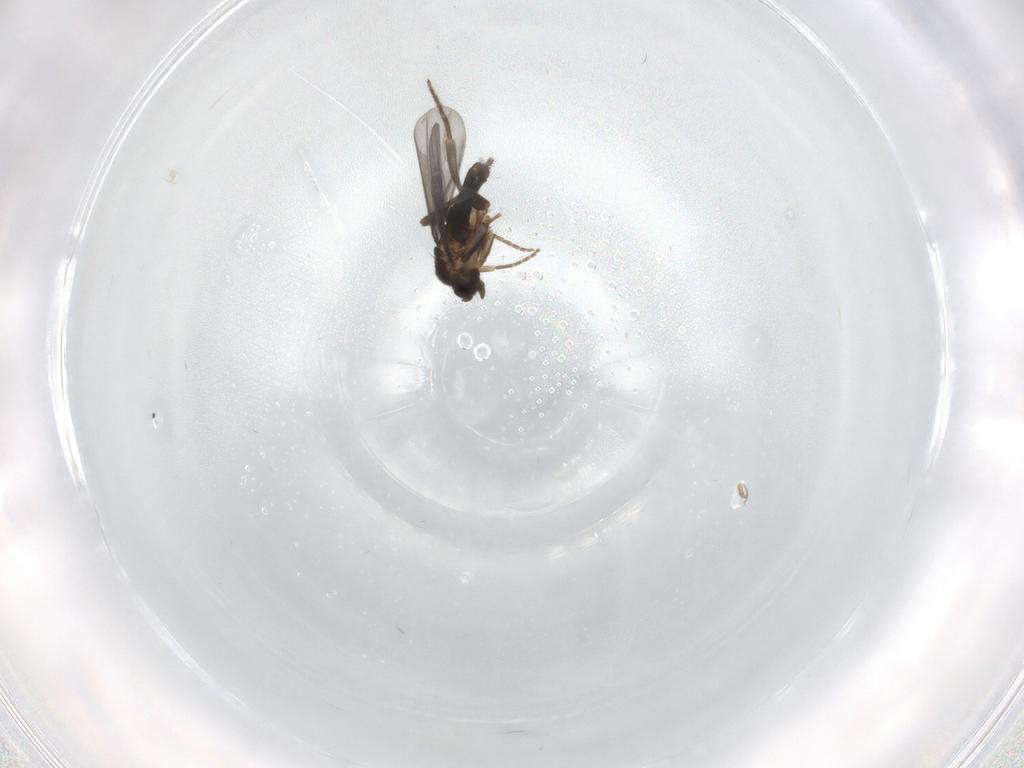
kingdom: Animalia
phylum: Arthropoda
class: Insecta
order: Diptera
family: Phoridae
